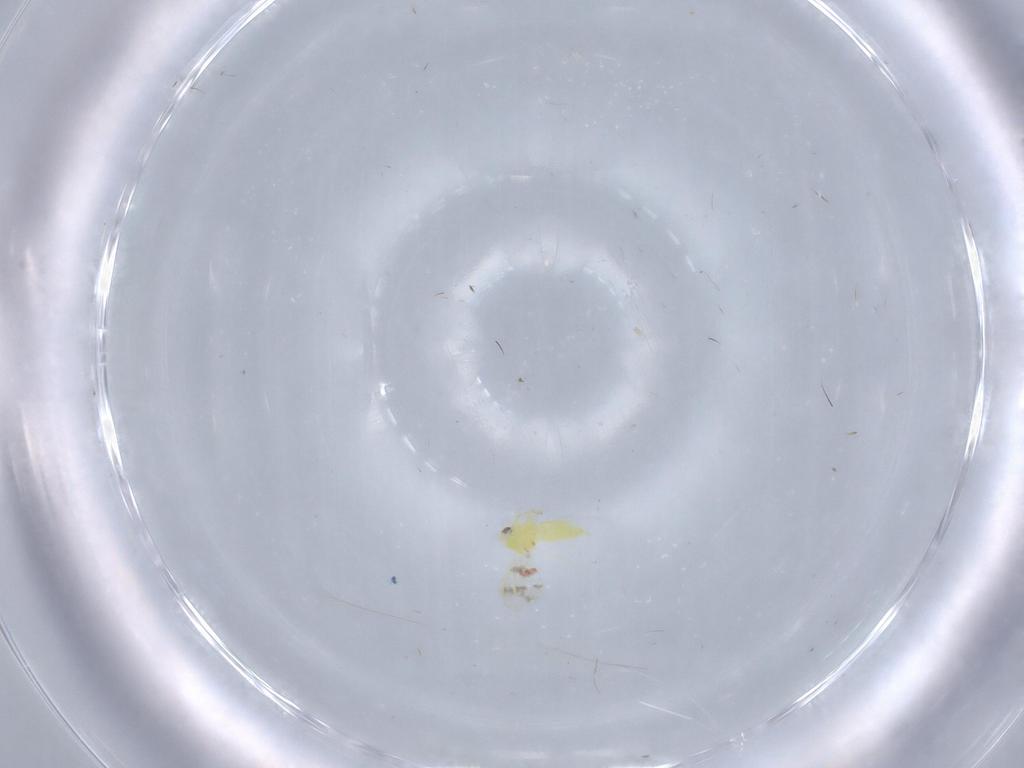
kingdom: Animalia
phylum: Arthropoda
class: Insecta
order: Hemiptera
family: Aleyrodidae
